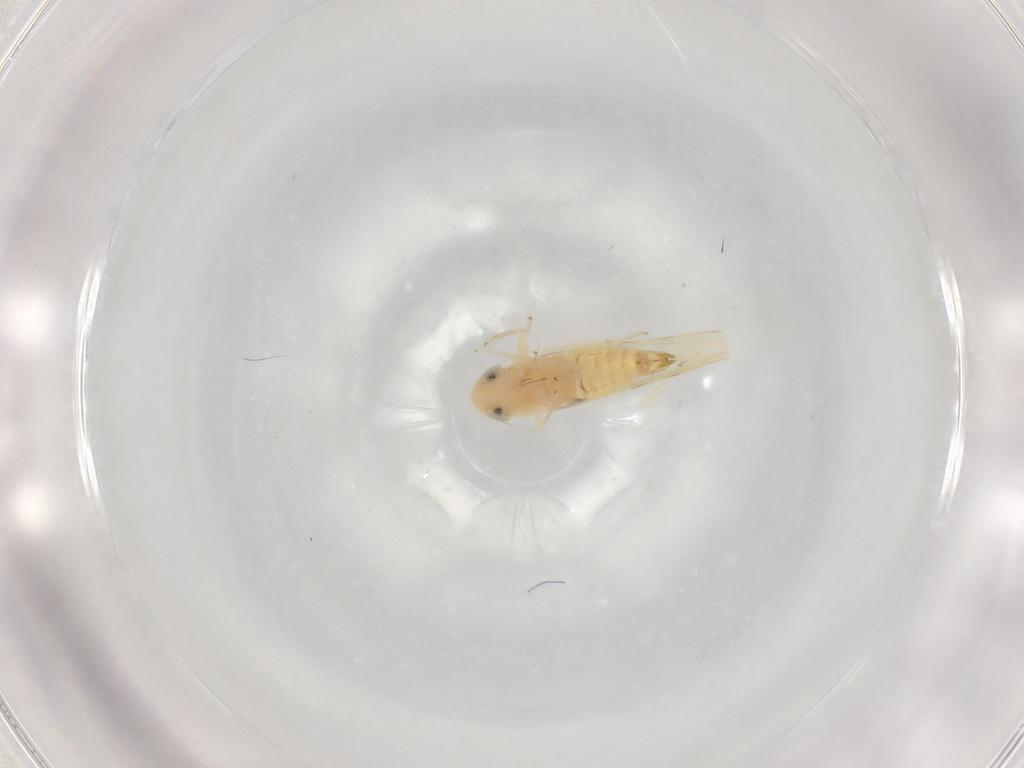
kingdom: Animalia
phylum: Arthropoda
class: Insecta
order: Hemiptera
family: Cicadellidae
